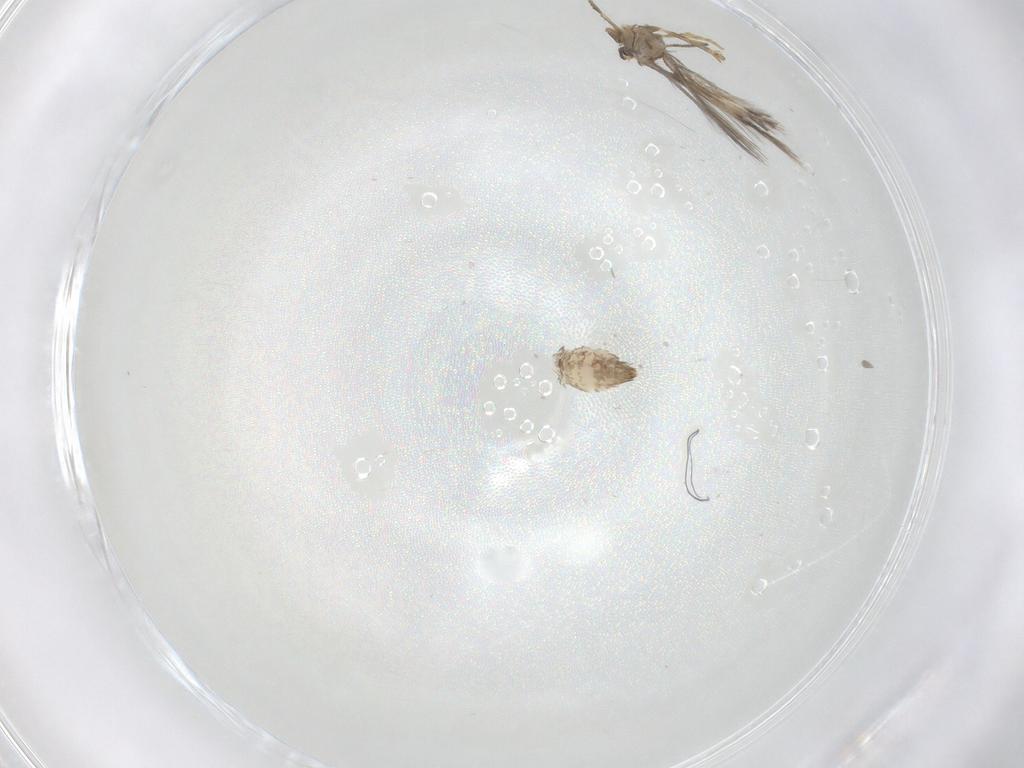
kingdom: Animalia
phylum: Arthropoda
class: Insecta
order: Lepidoptera
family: Nepticulidae
